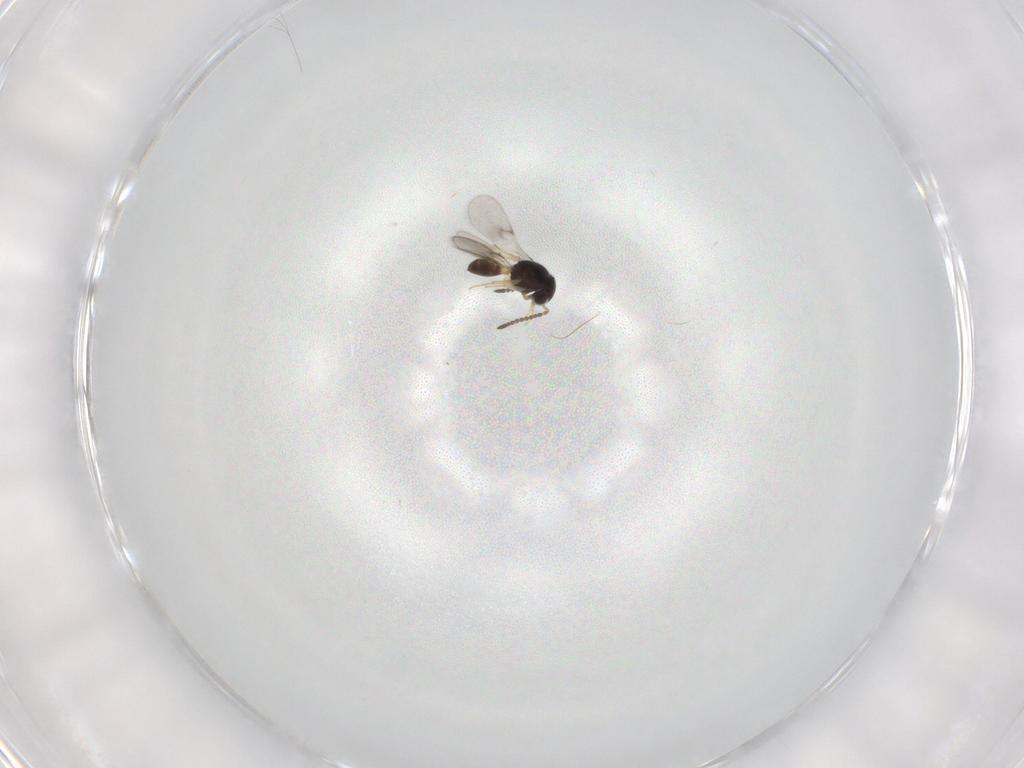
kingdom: Animalia
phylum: Arthropoda
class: Insecta
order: Hymenoptera
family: Scelionidae
